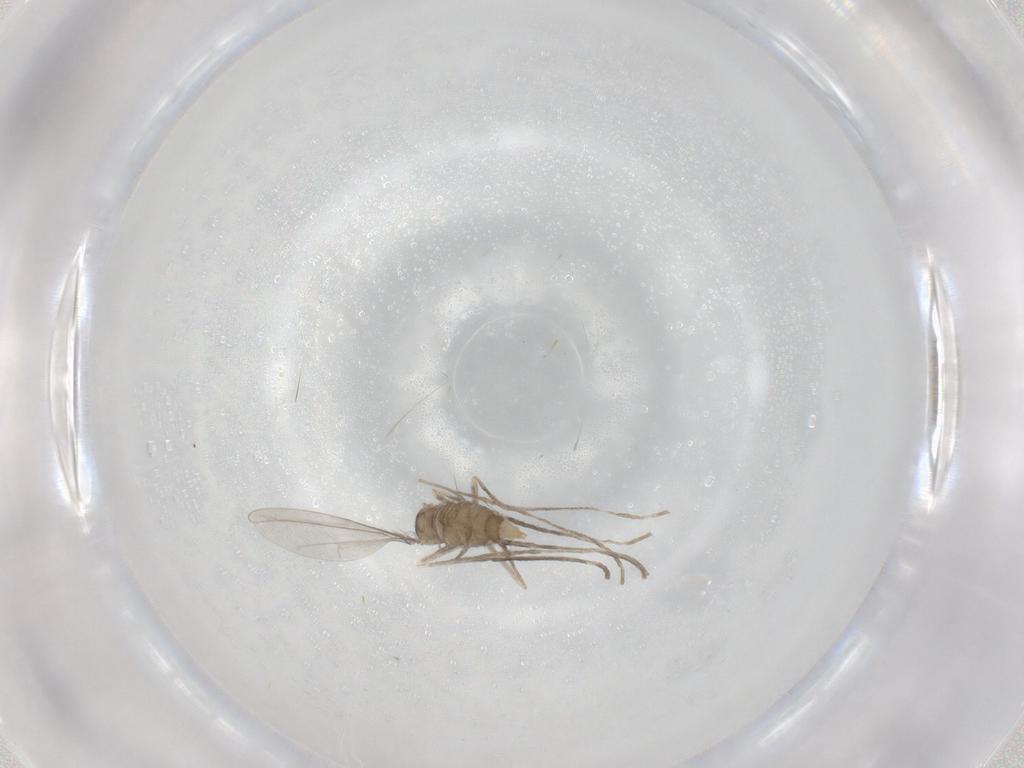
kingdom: Animalia
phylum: Arthropoda
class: Insecta
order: Diptera
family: Cecidomyiidae
